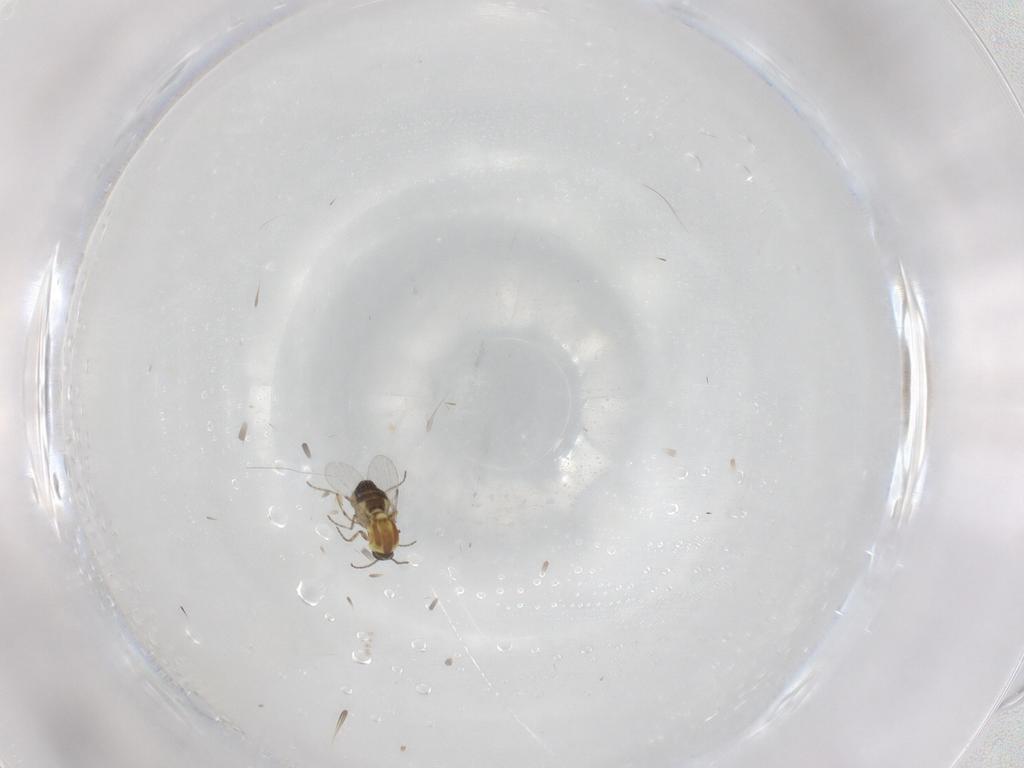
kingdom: Animalia
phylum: Arthropoda
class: Insecta
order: Diptera
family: Ceratopogonidae
